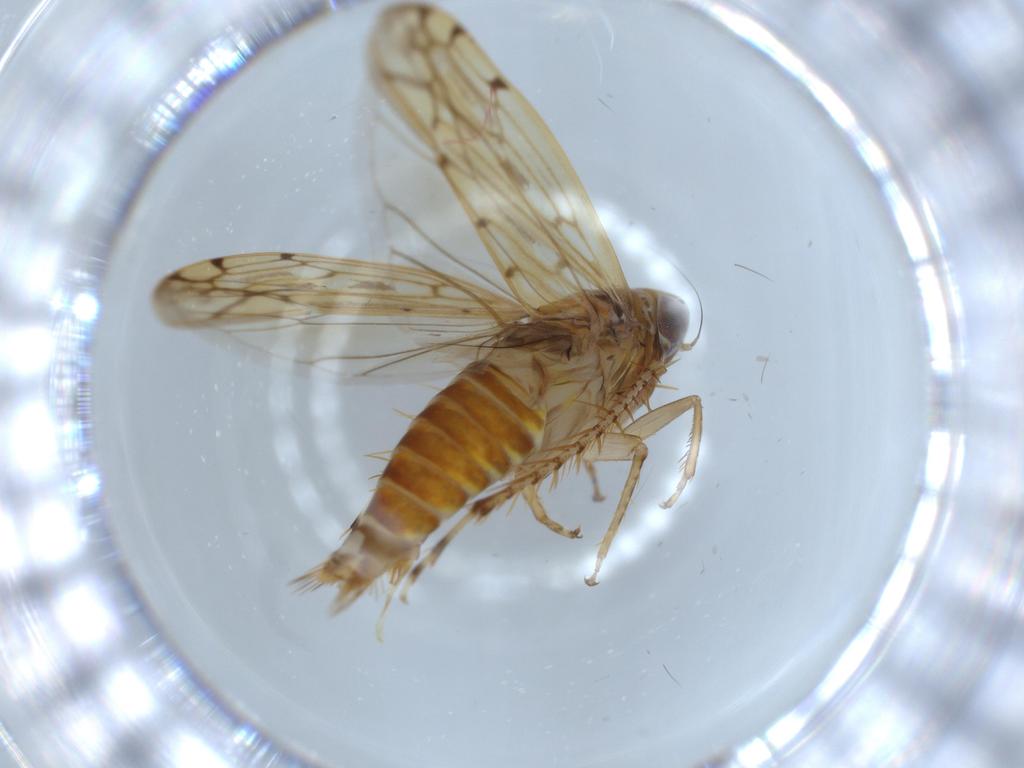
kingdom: Animalia
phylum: Arthropoda
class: Insecta
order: Hemiptera
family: Cicadellidae
